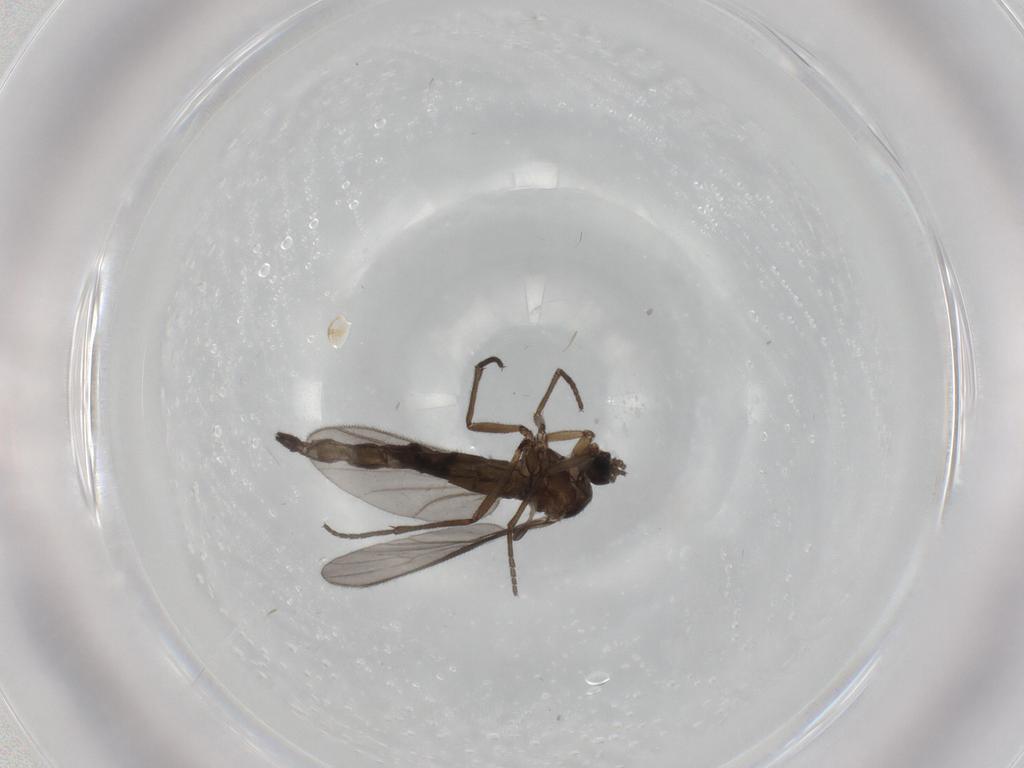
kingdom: Animalia
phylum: Arthropoda
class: Insecta
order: Diptera
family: Sciaridae
